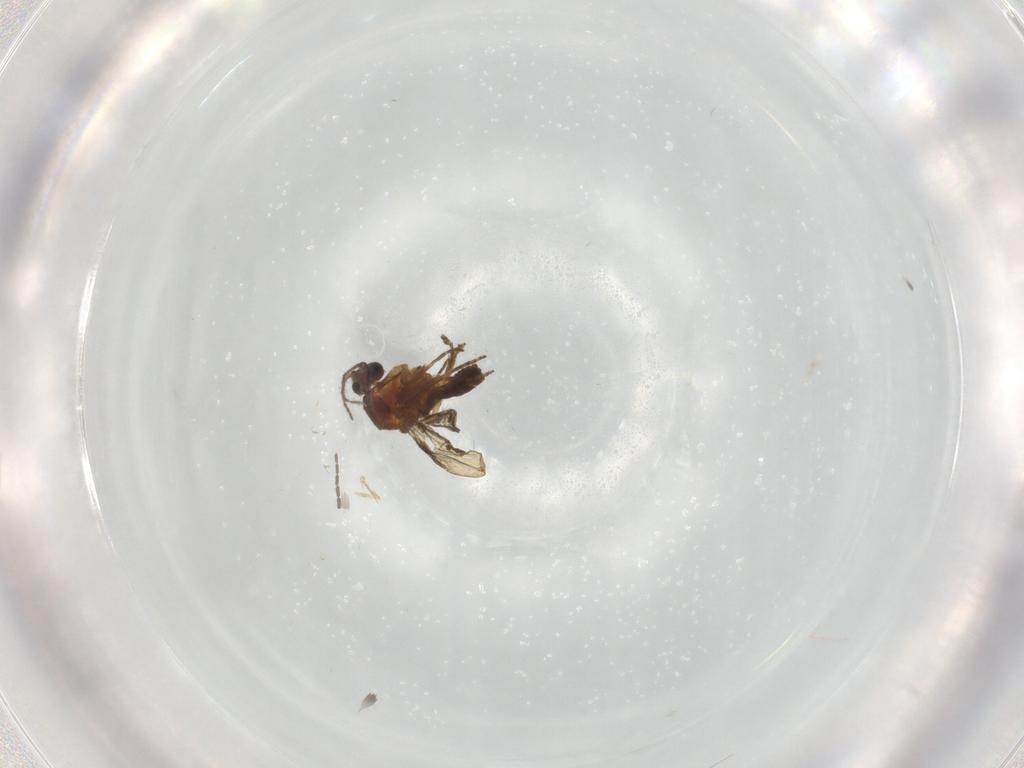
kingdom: Animalia
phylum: Arthropoda
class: Insecta
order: Diptera
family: Ceratopogonidae
